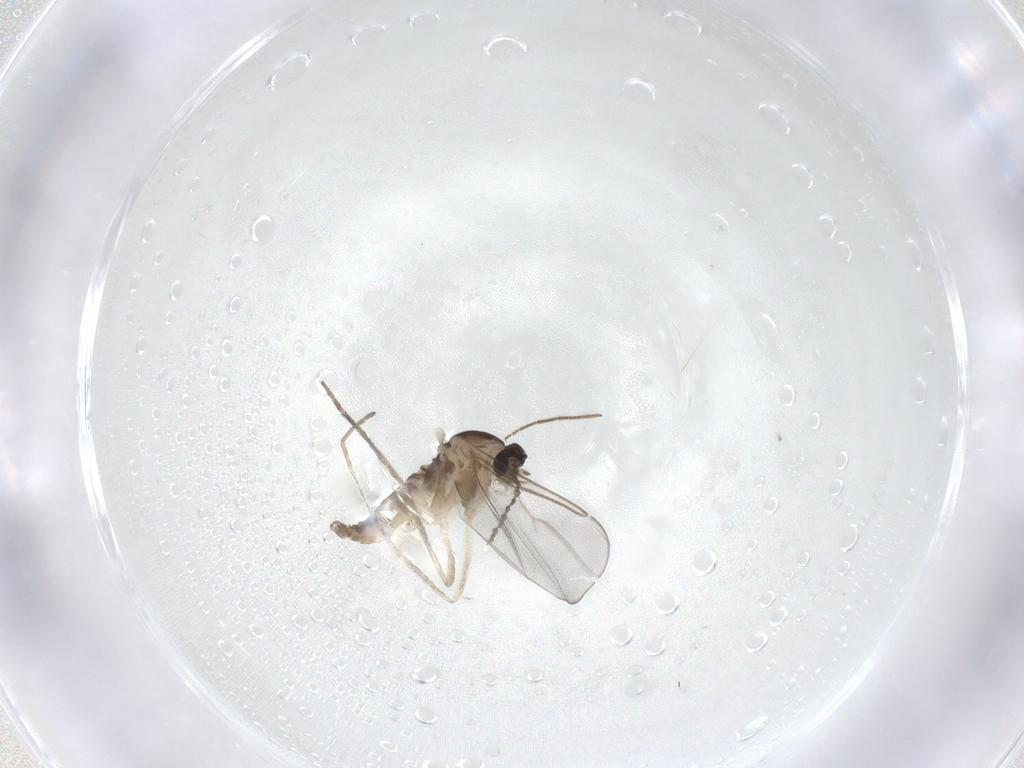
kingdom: Animalia
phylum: Arthropoda
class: Insecta
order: Diptera
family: Cecidomyiidae
